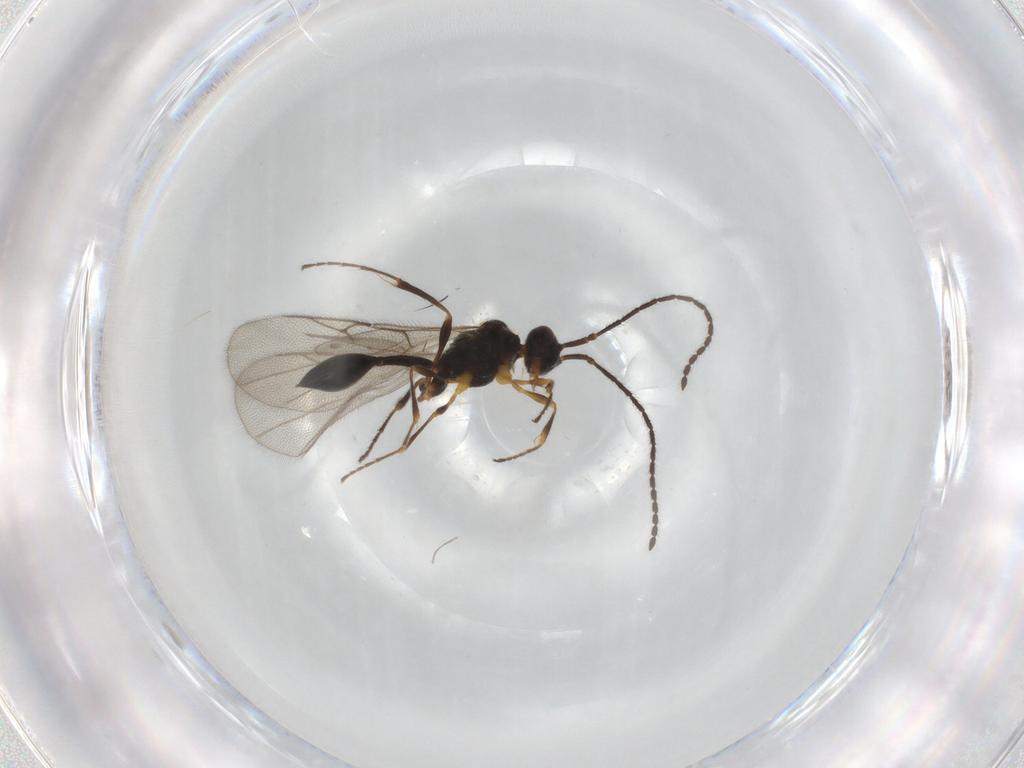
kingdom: Animalia
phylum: Arthropoda
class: Insecta
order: Hymenoptera
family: Diapriidae
